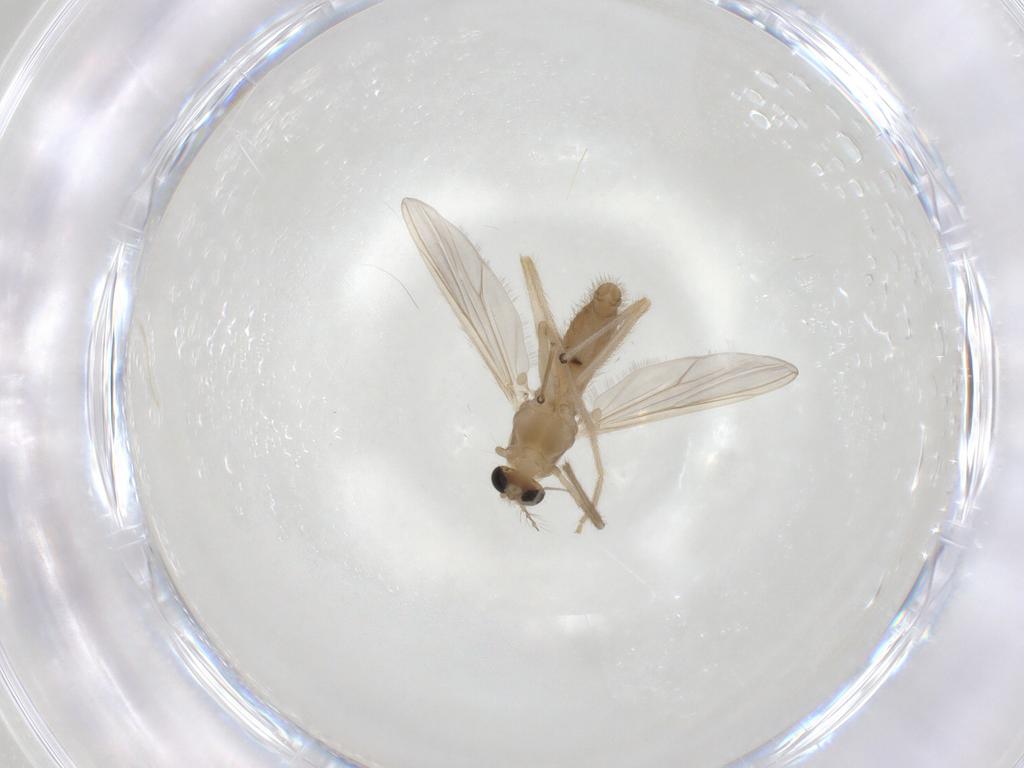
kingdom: Animalia
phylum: Arthropoda
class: Insecta
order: Diptera
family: Chironomidae
